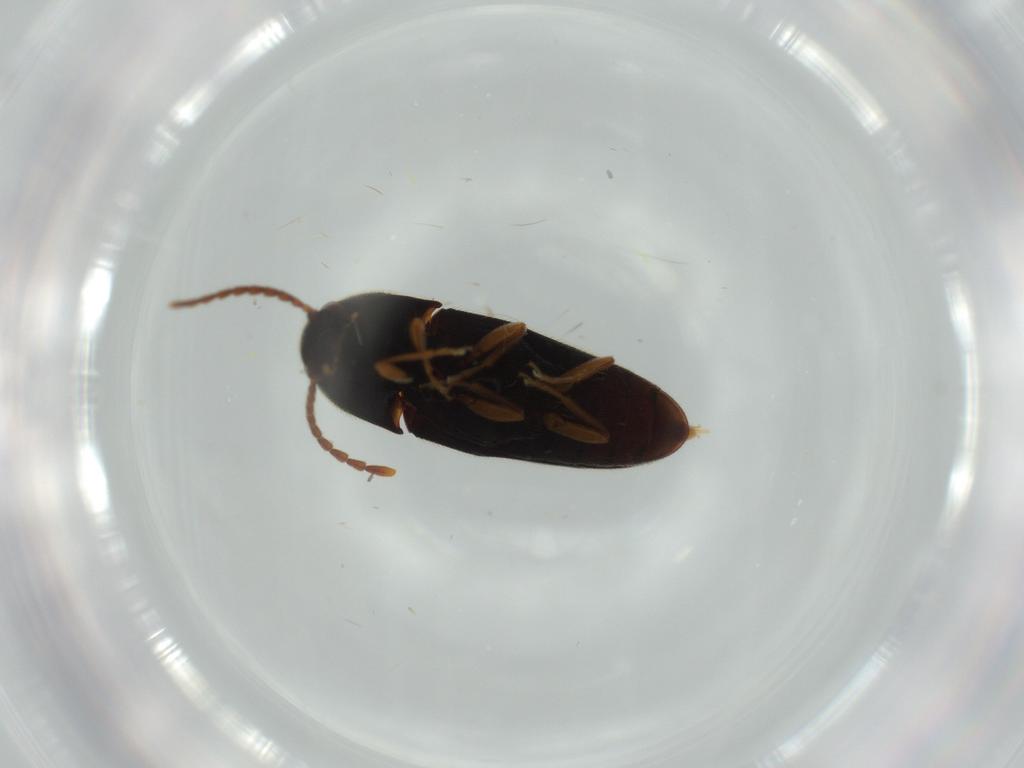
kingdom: Animalia
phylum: Arthropoda
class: Insecta
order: Coleoptera
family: Elateridae
